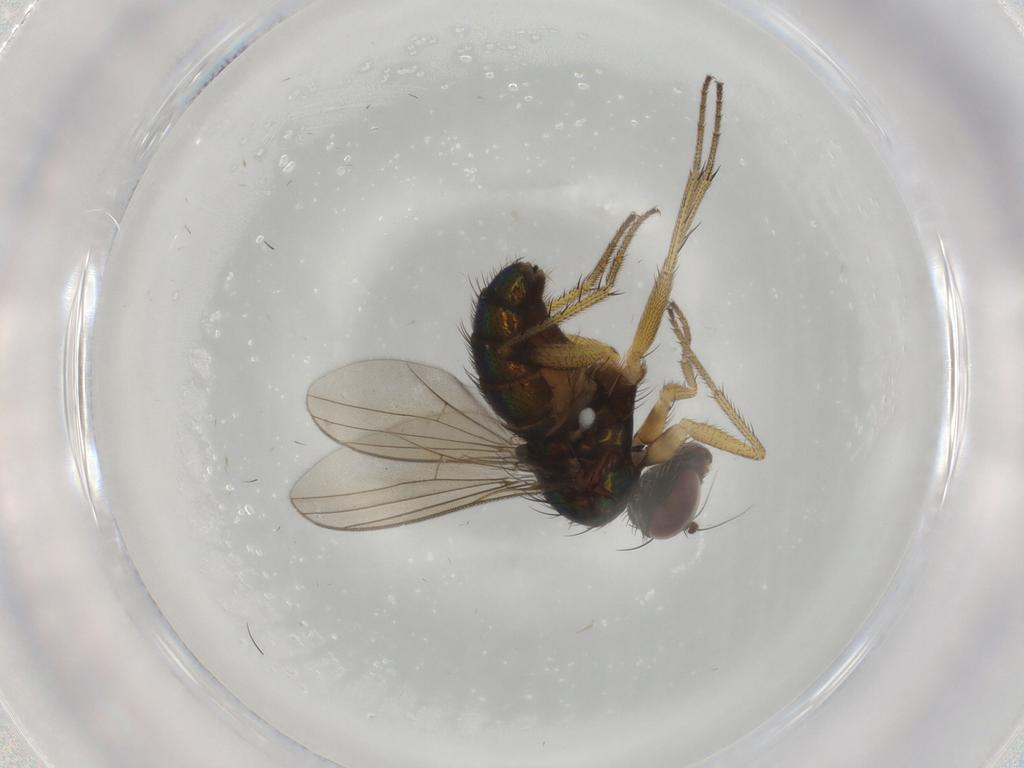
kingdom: Animalia
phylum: Arthropoda
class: Insecta
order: Diptera
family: Dolichopodidae
